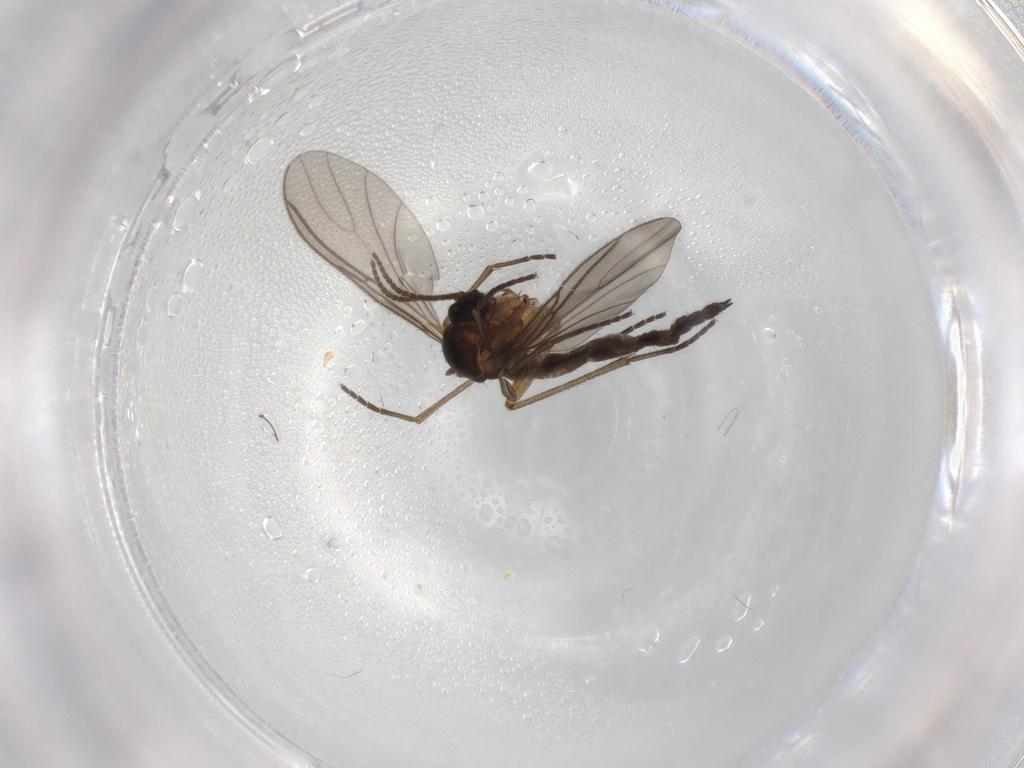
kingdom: Animalia
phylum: Arthropoda
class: Insecta
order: Diptera
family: Sciaridae
